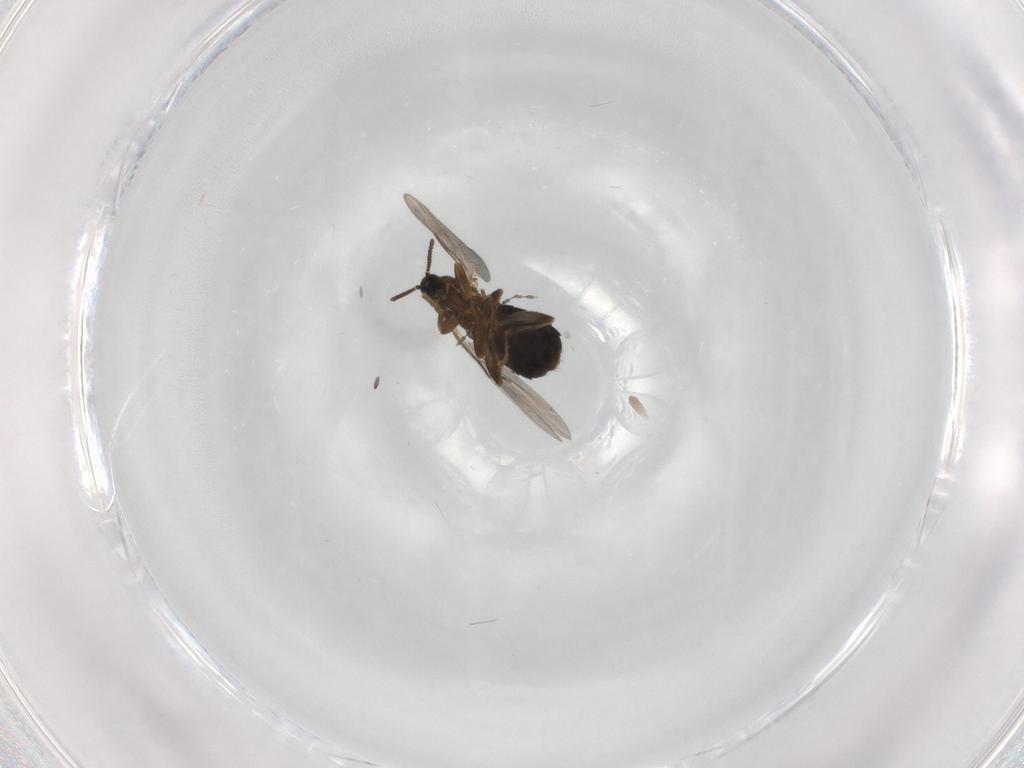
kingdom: Animalia
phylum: Arthropoda
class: Insecta
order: Diptera
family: Scatopsidae
